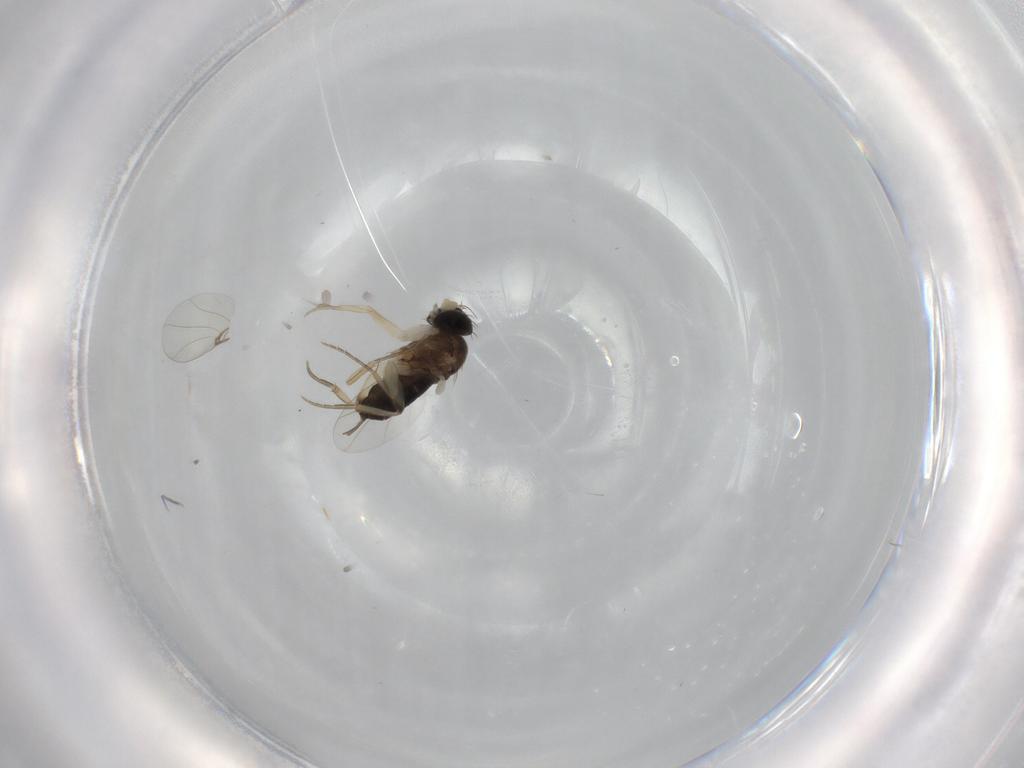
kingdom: Animalia
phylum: Arthropoda
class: Insecta
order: Diptera
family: Phoridae
